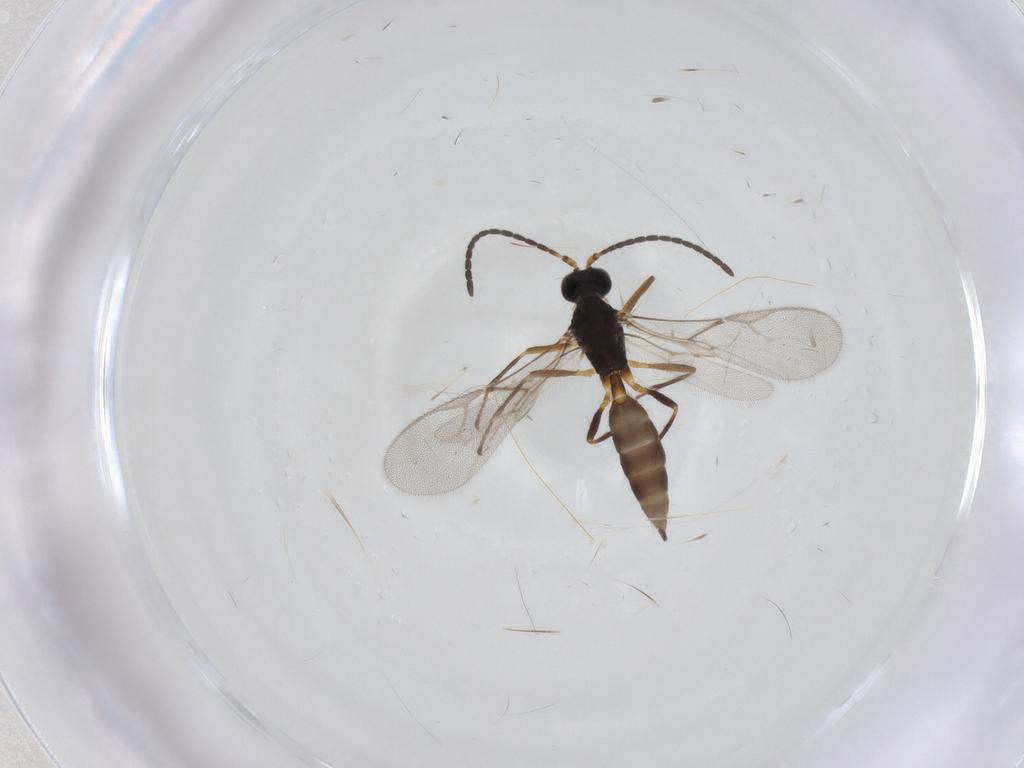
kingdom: Animalia
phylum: Arthropoda
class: Insecta
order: Hymenoptera
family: Braconidae
